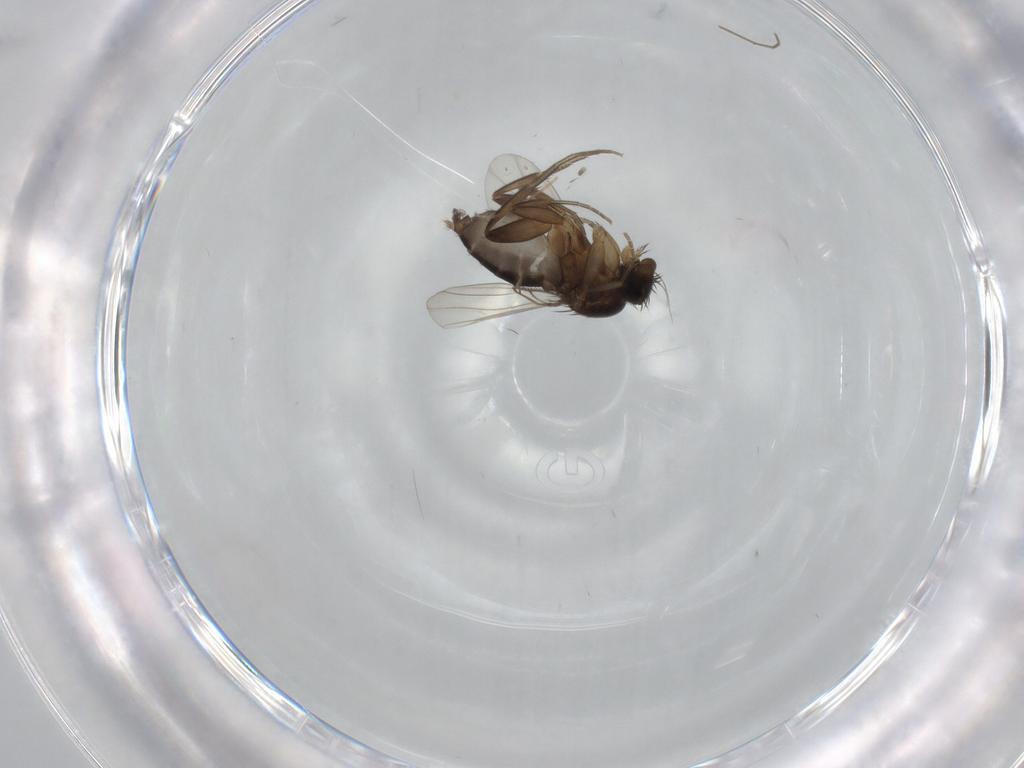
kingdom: Animalia
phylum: Arthropoda
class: Insecta
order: Diptera
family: Phoridae
